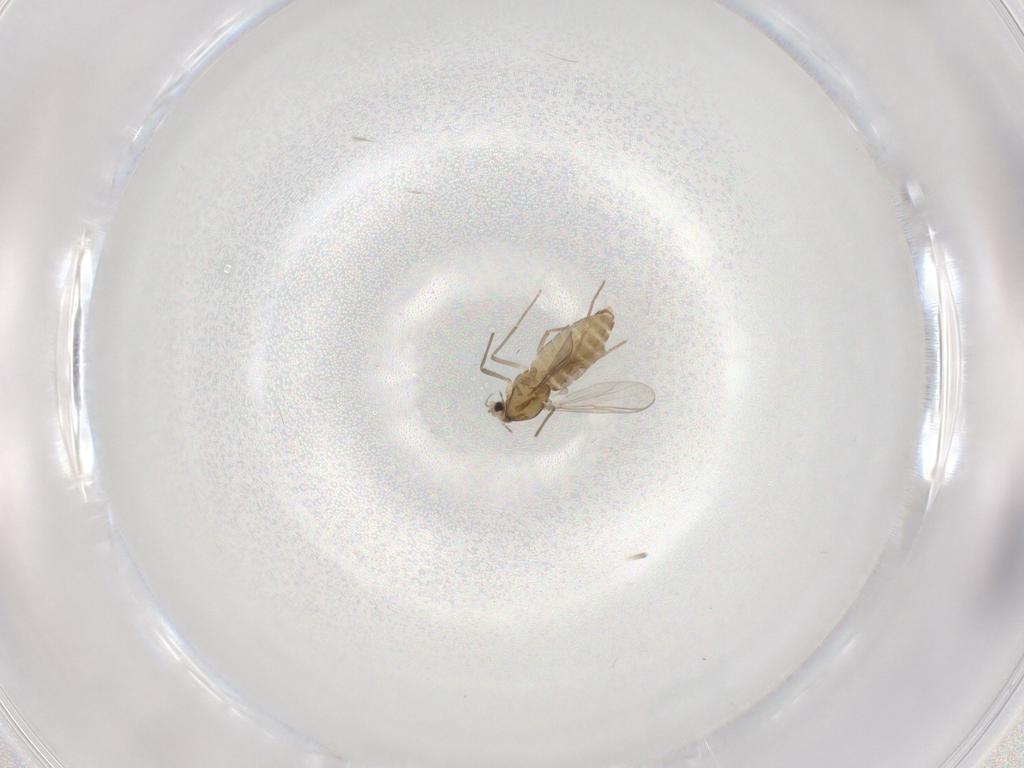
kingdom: Animalia
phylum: Arthropoda
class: Insecta
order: Diptera
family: Chironomidae
